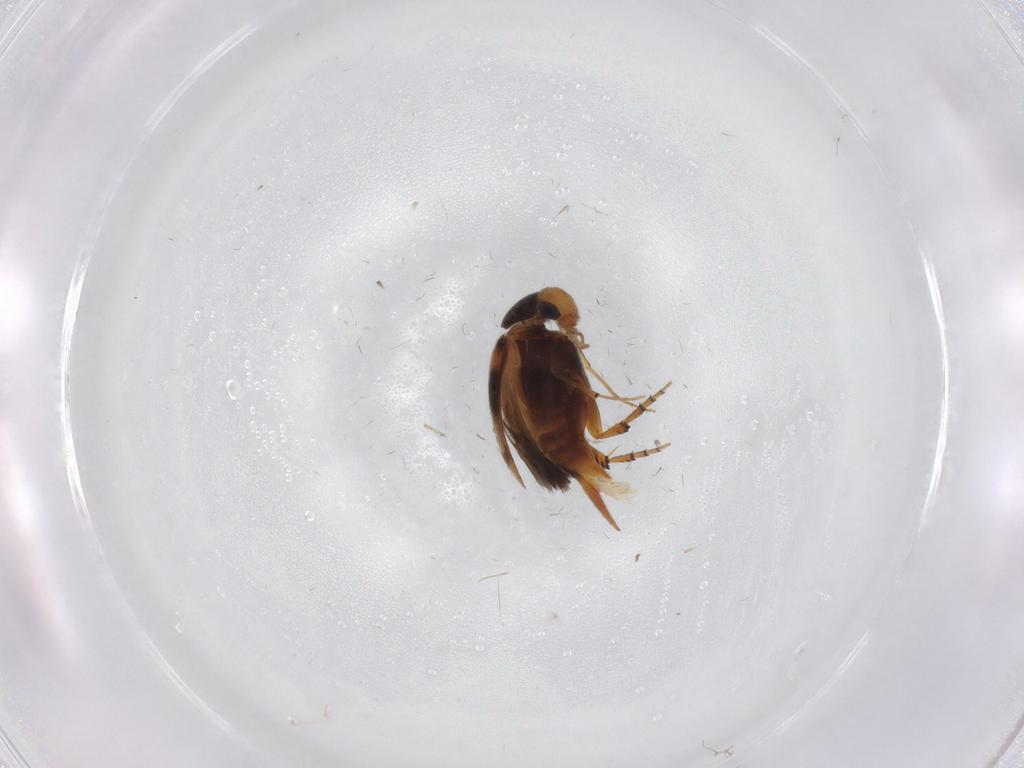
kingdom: Animalia
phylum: Arthropoda
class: Insecta
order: Coleoptera
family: Mordellidae
